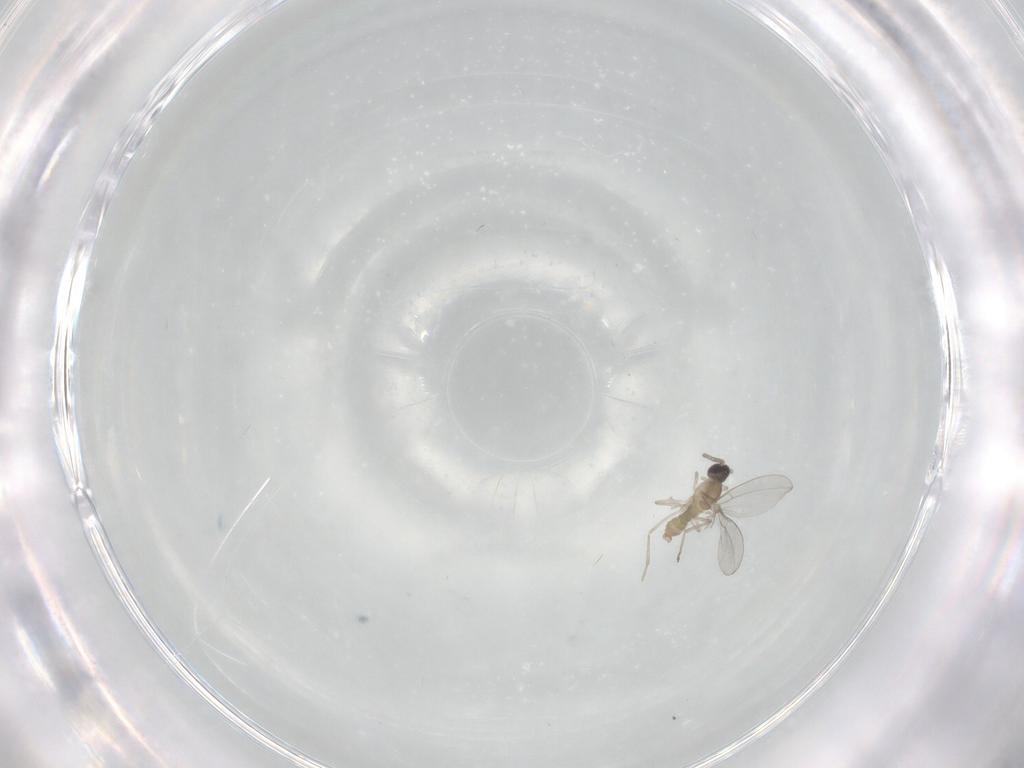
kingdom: Animalia
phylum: Arthropoda
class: Insecta
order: Diptera
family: Cecidomyiidae
